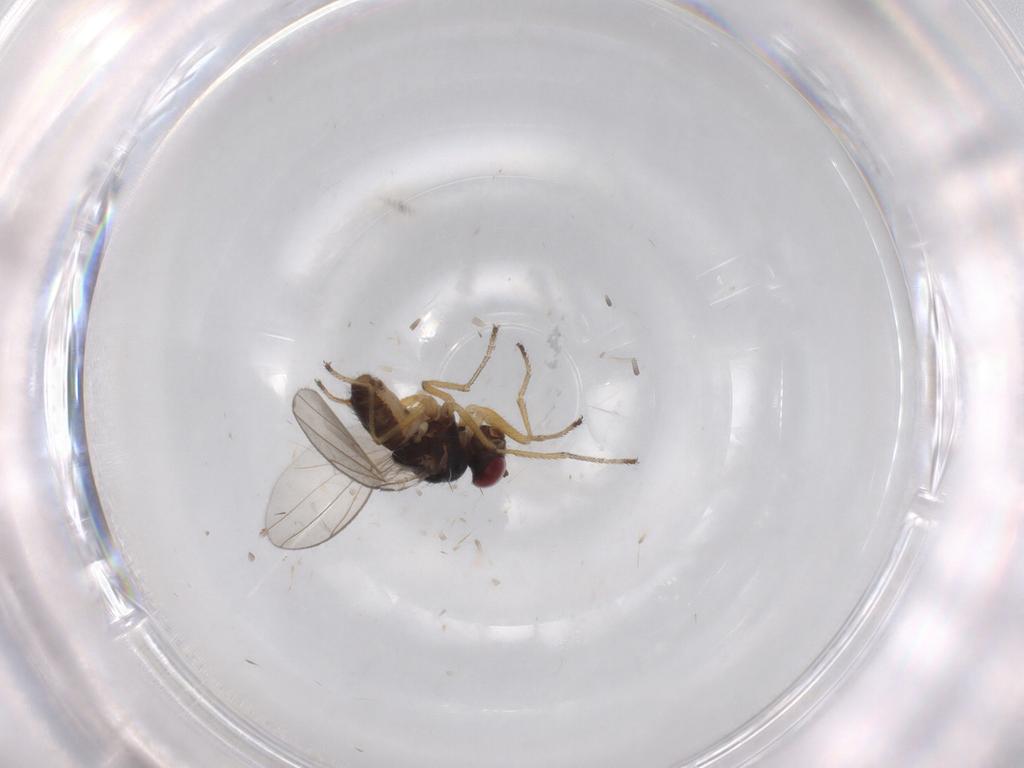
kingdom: Animalia
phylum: Arthropoda
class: Insecta
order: Diptera
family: Ephydridae
